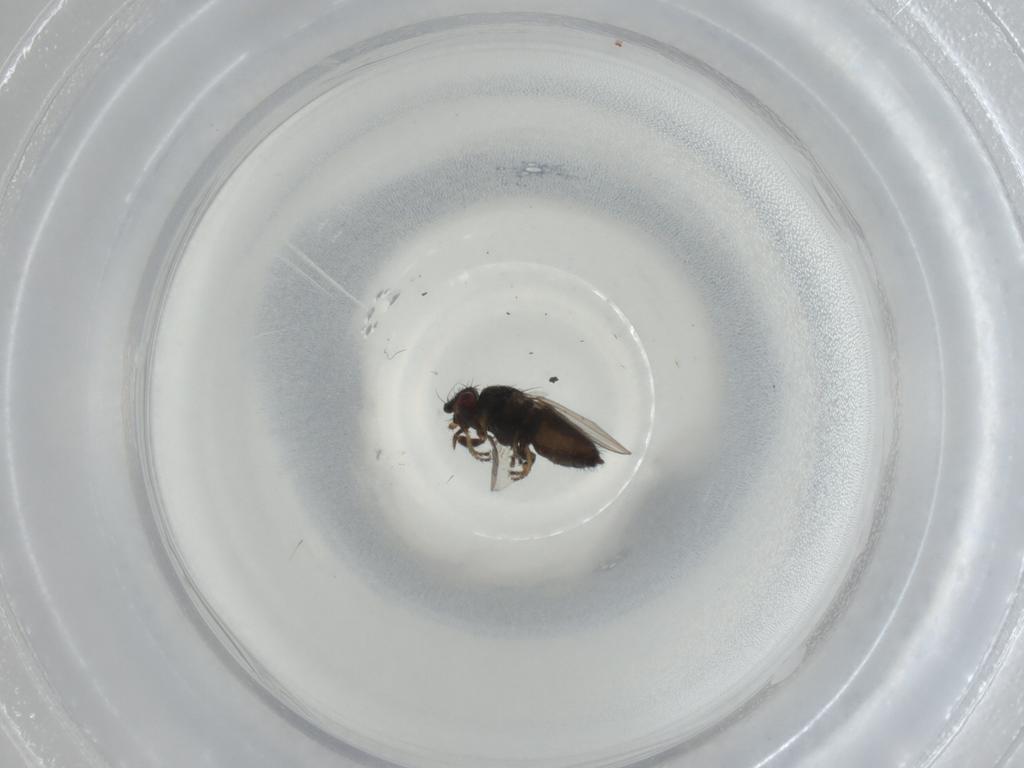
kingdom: Animalia
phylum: Arthropoda
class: Insecta
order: Diptera
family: Milichiidae
